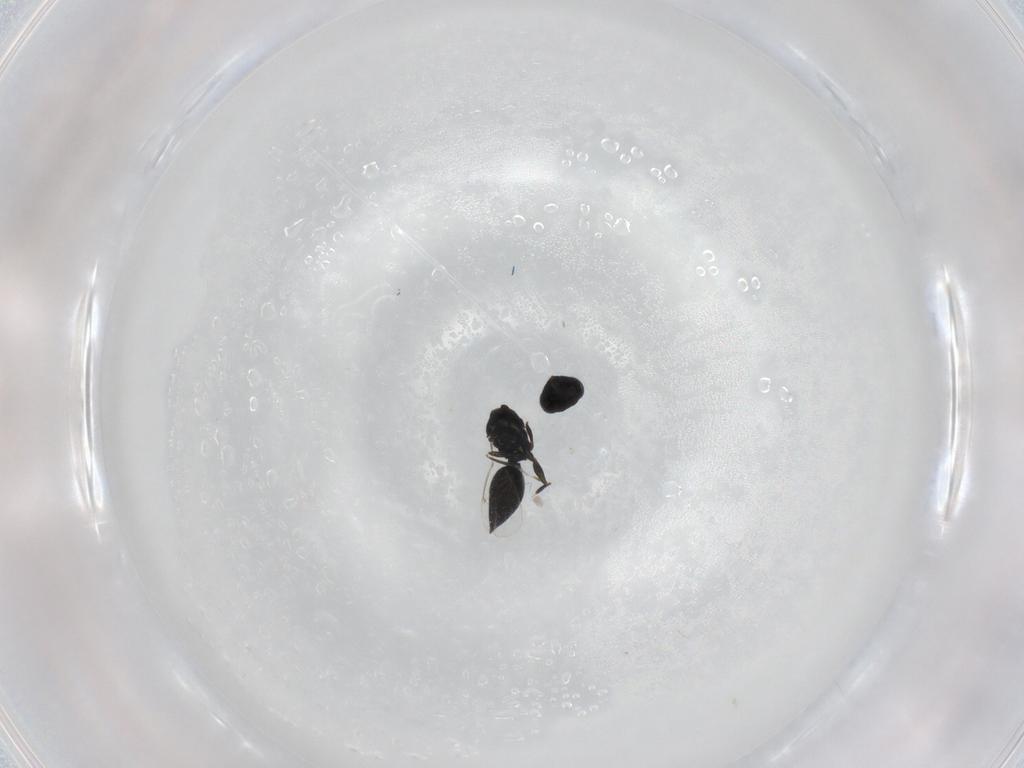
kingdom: Animalia
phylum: Arthropoda
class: Insecta
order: Hymenoptera
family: Eulophidae
